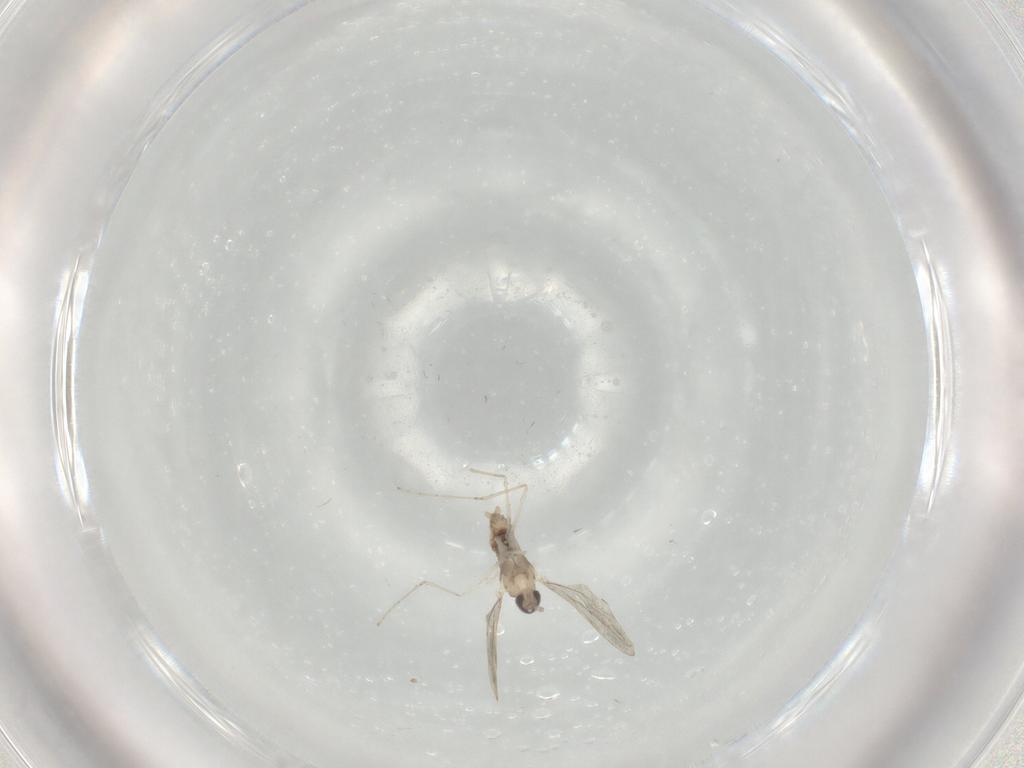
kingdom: Animalia
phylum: Arthropoda
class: Insecta
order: Diptera
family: Cecidomyiidae
